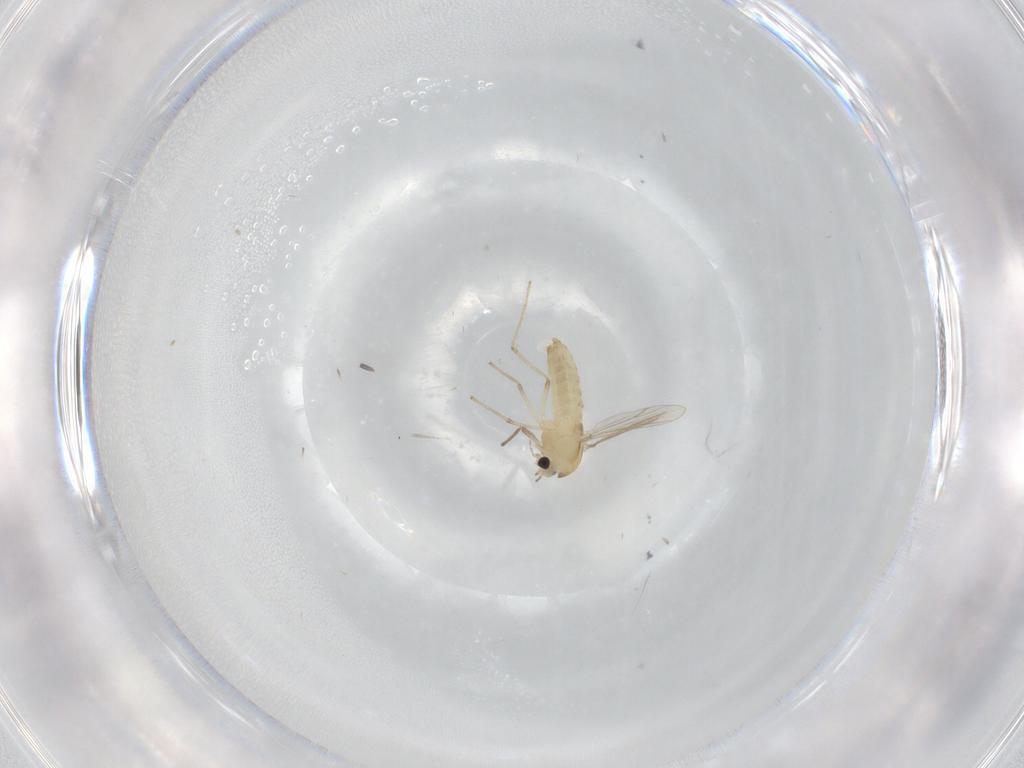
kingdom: Animalia
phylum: Arthropoda
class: Insecta
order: Diptera
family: Chironomidae
